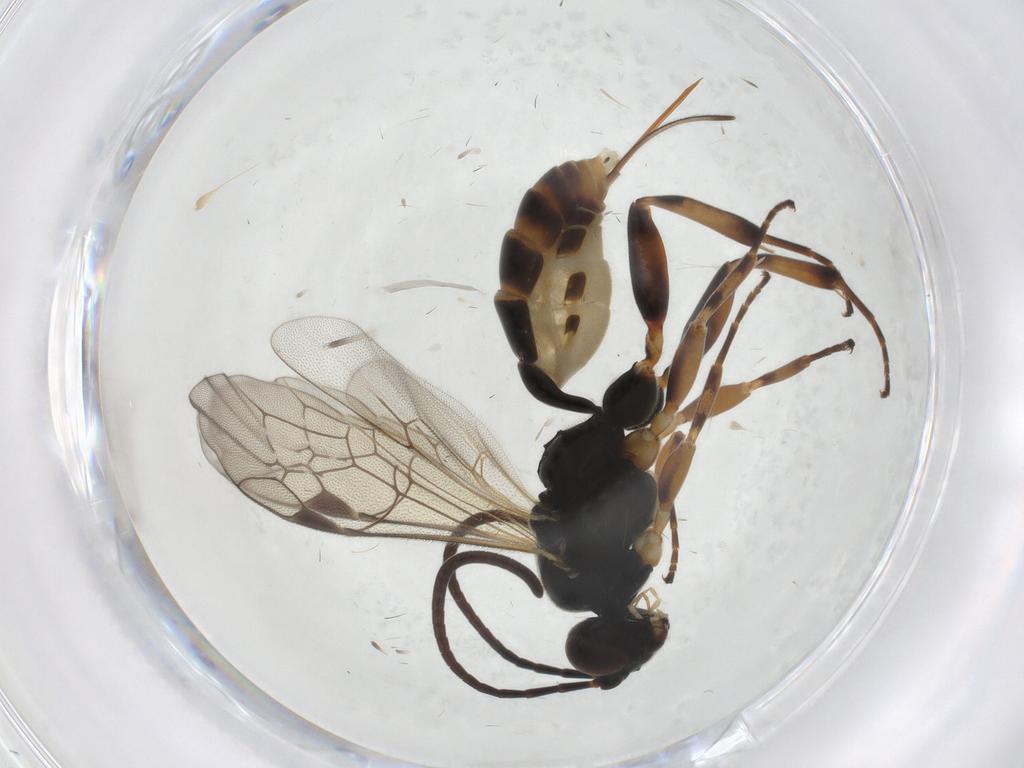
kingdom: Animalia
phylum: Arthropoda
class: Insecta
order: Hymenoptera
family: Ichneumonidae
